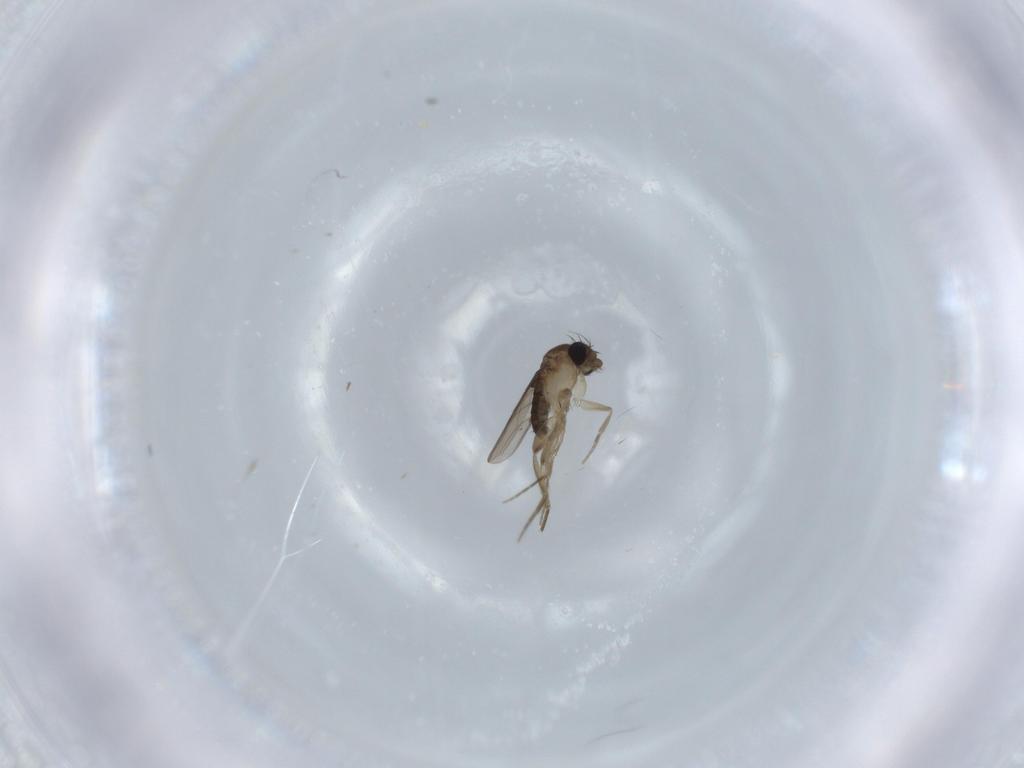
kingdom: Animalia
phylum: Arthropoda
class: Insecta
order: Diptera
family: Phoridae
